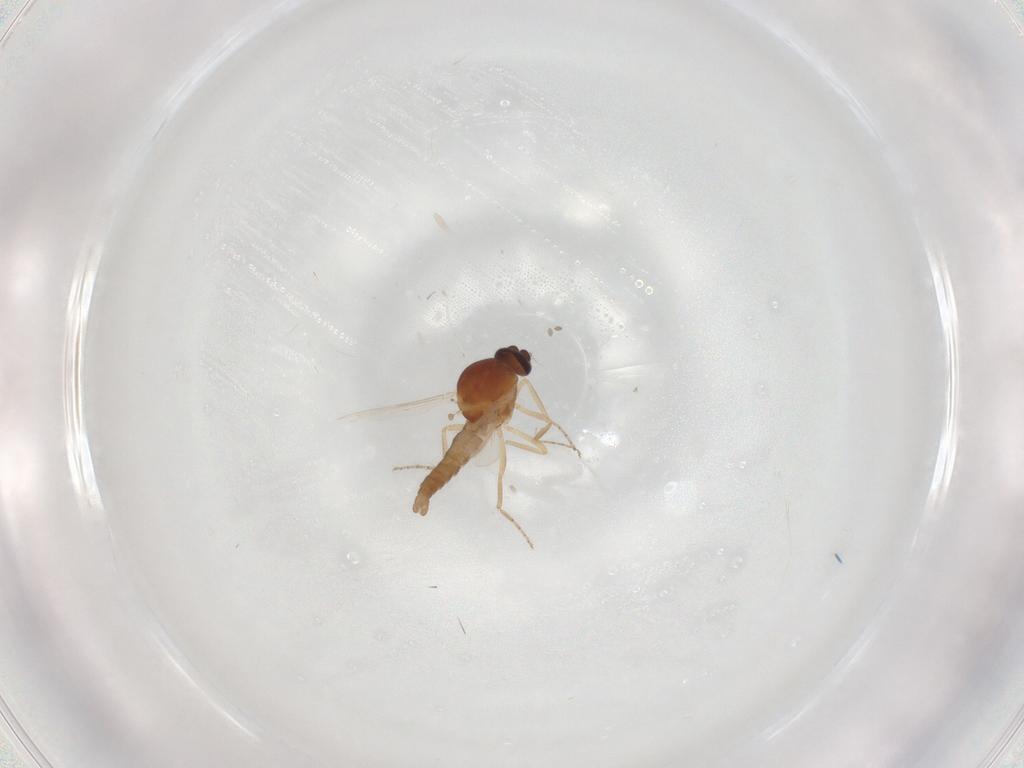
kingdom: Animalia
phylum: Arthropoda
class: Insecta
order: Diptera
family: Ceratopogonidae
